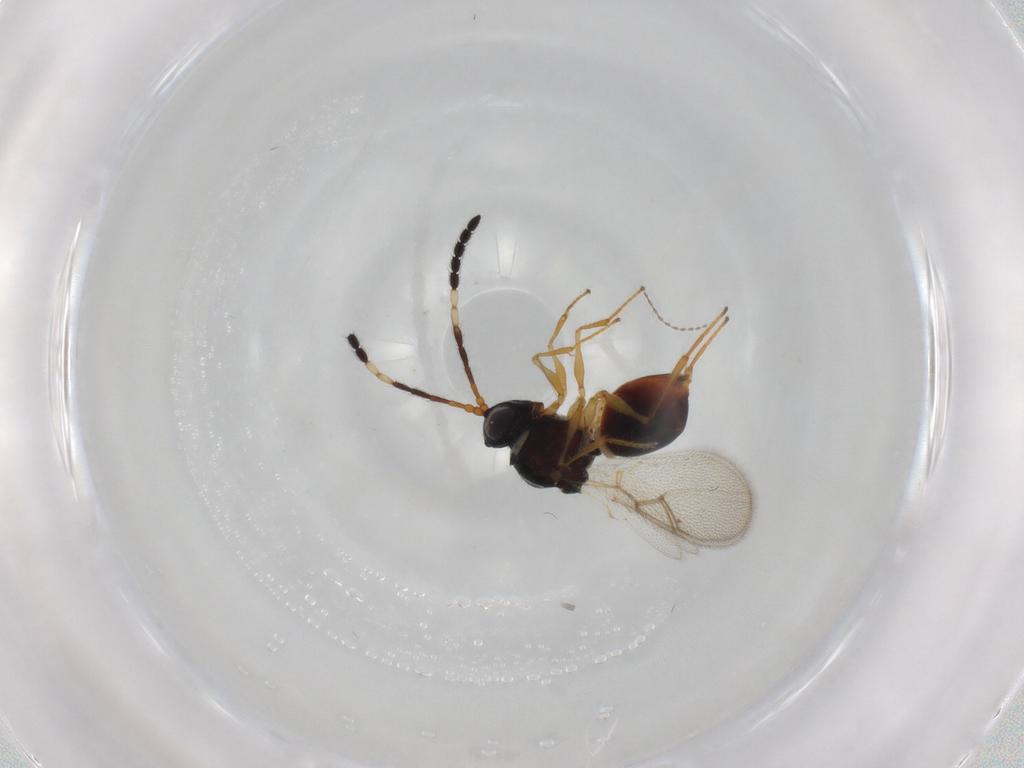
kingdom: Animalia
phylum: Arthropoda
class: Insecta
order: Hymenoptera
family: Figitidae
